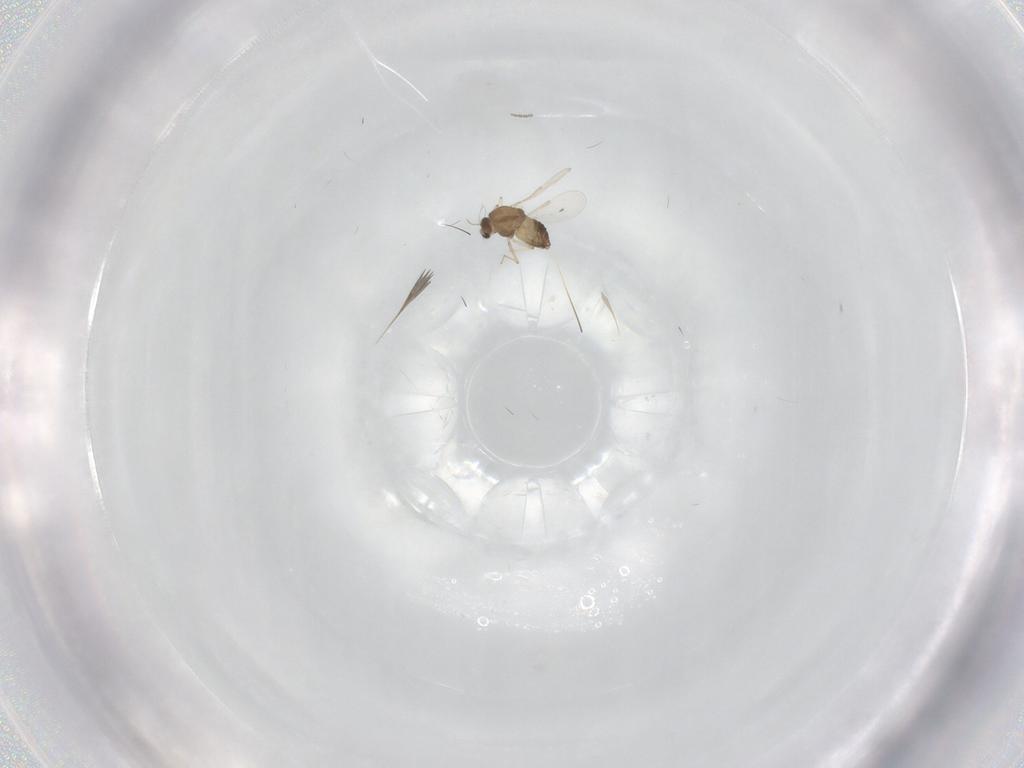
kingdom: Animalia
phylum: Arthropoda
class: Insecta
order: Diptera
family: Chironomidae
